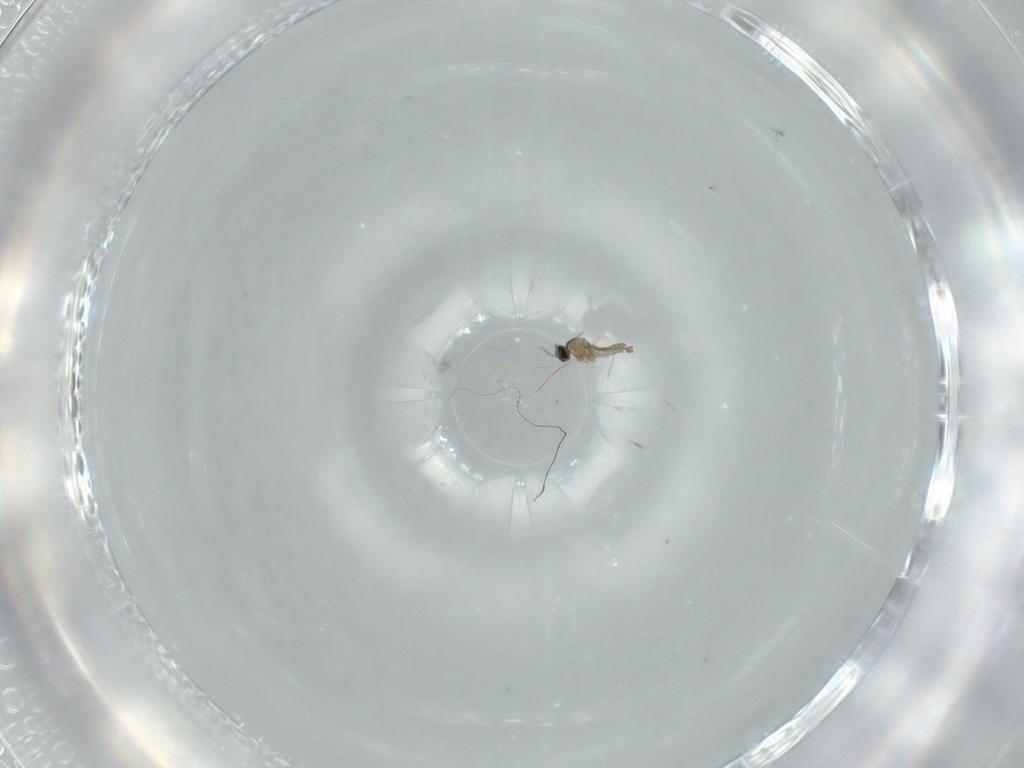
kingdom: Animalia
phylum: Arthropoda
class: Insecta
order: Diptera
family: Cecidomyiidae
